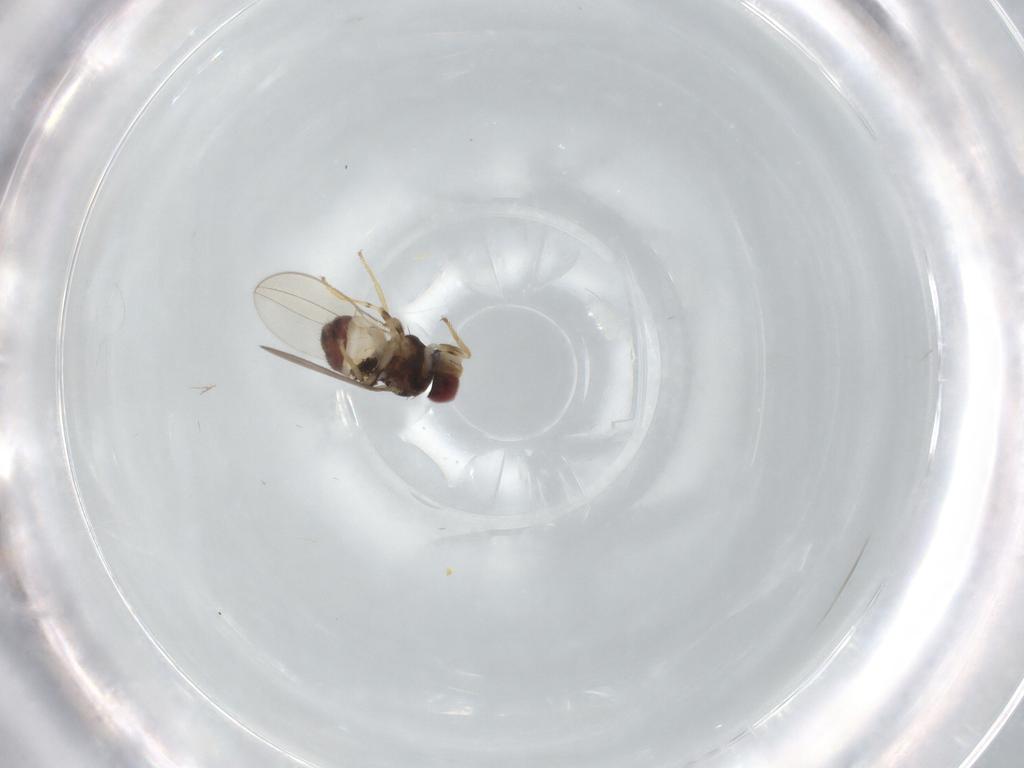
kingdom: Animalia
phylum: Arthropoda
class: Insecta
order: Diptera
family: Asteiidae
